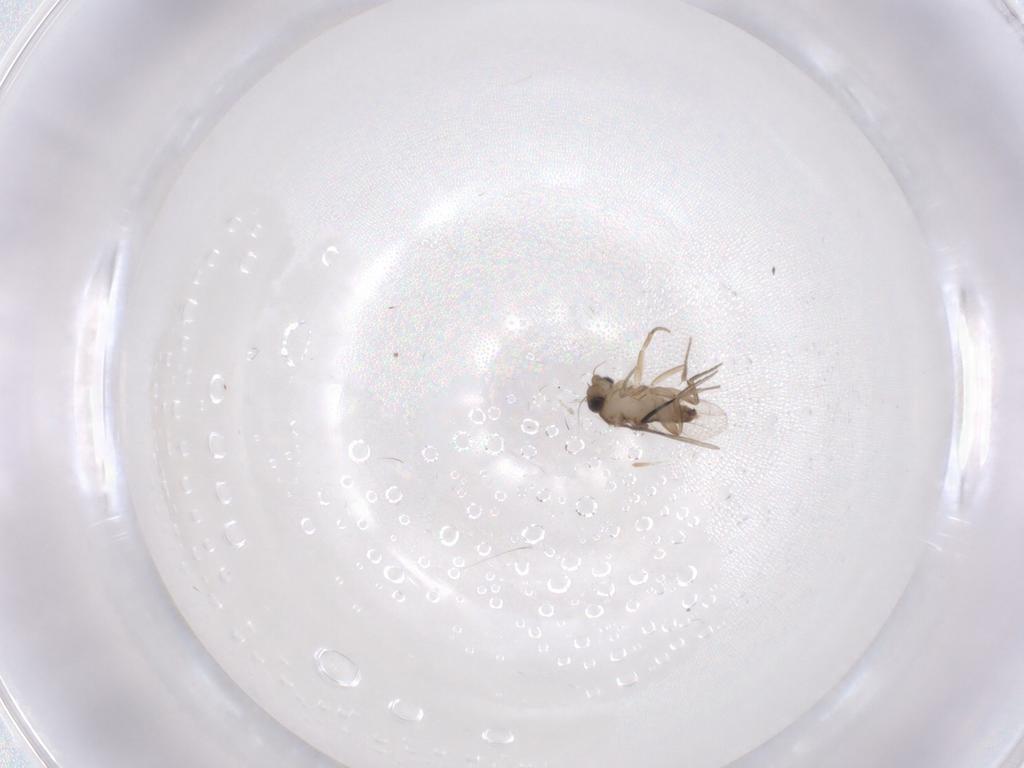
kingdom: Animalia
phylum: Arthropoda
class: Insecta
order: Diptera
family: Phoridae
